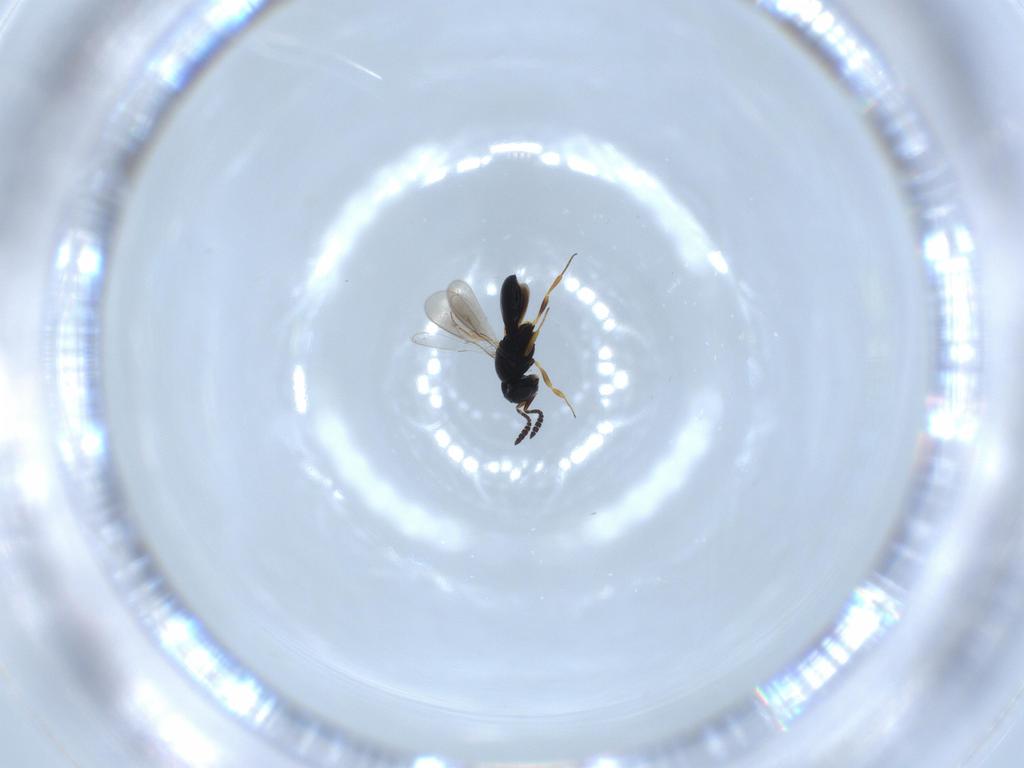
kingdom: Animalia
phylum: Arthropoda
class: Insecta
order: Hymenoptera
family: Scelionidae
